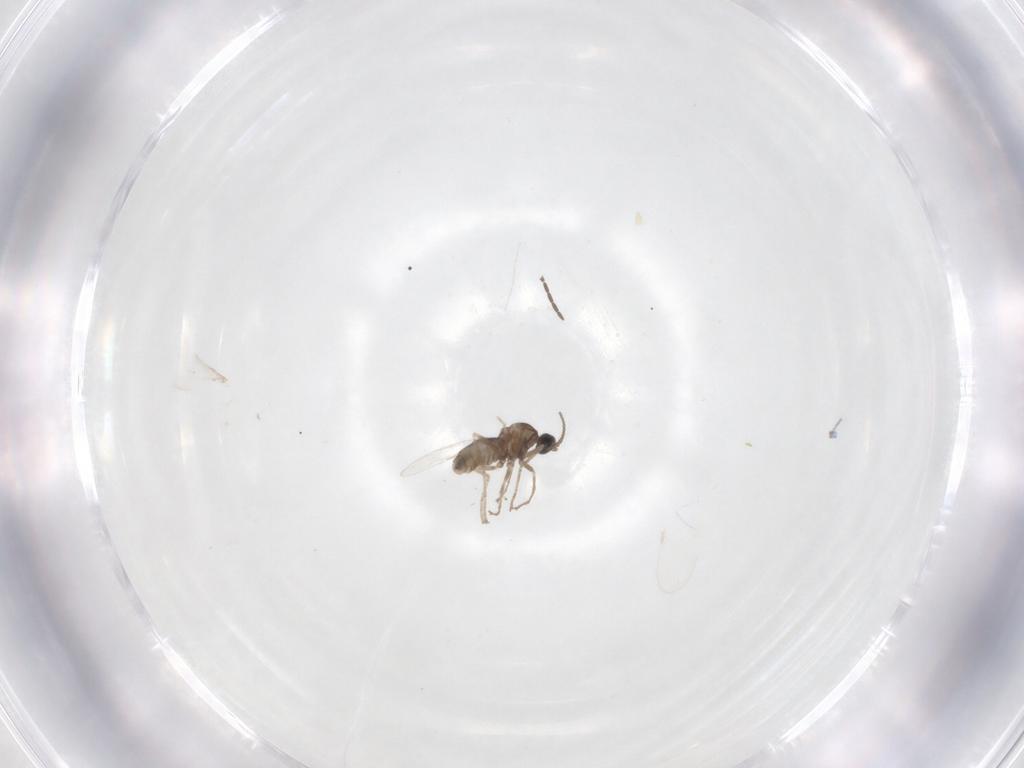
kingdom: Animalia
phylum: Arthropoda
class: Insecta
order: Diptera
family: Cecidomyiidae
